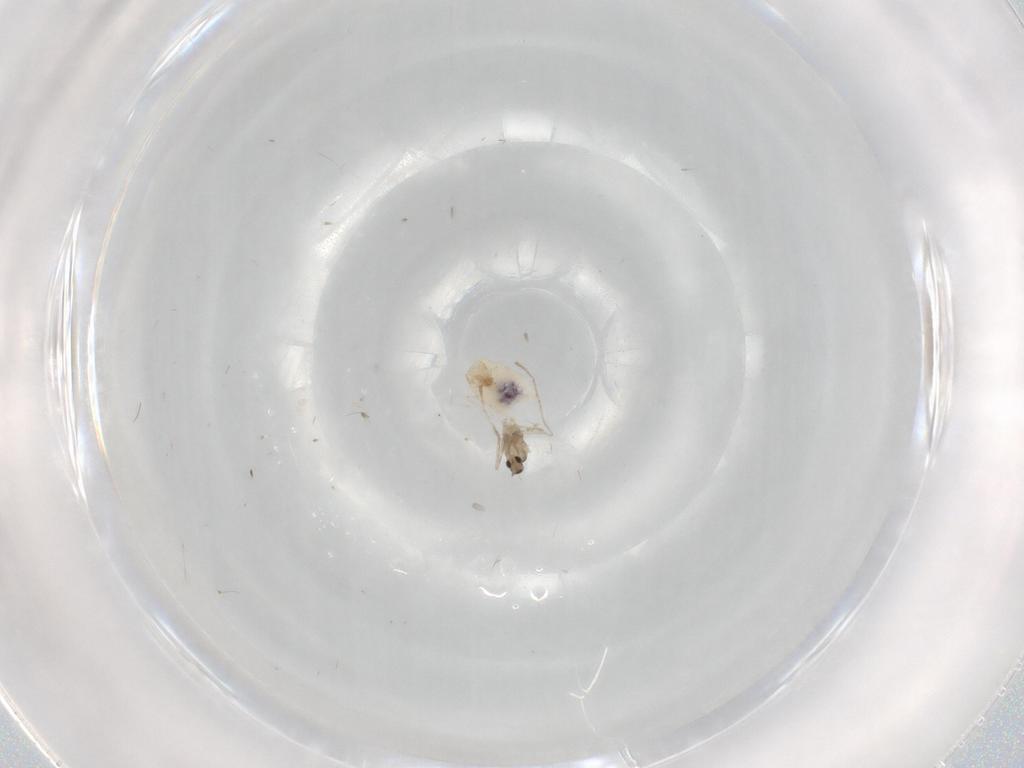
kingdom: Animalia
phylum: Arthropoda
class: Insecta
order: Diptera
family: Cecidomyiidae
